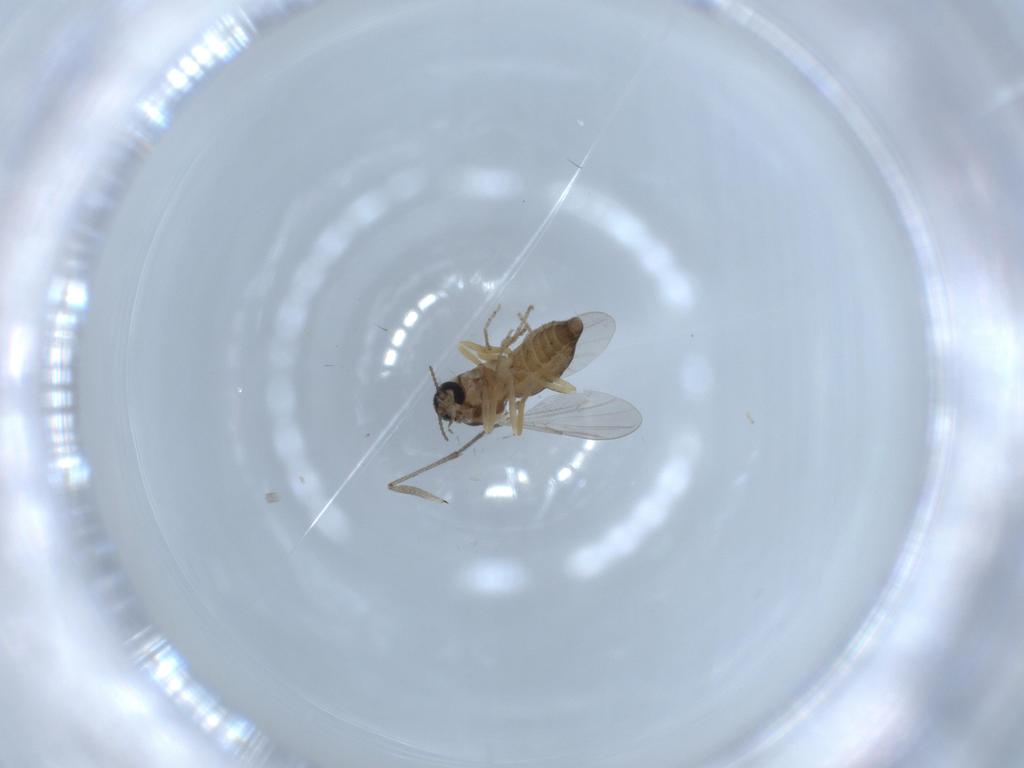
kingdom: Animalia
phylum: Arthropoda
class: Insecta
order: Diptera
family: Ceratopogonidae
